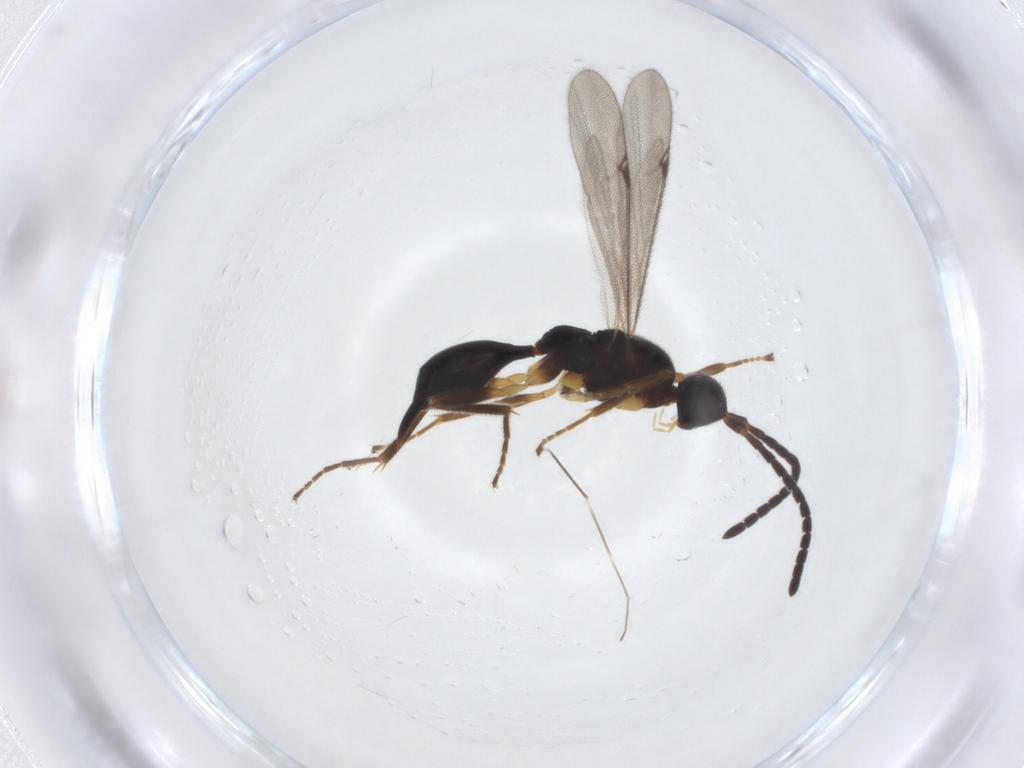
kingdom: Animalia
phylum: Arthropoda
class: Insecta
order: Hymenoptera
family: Proctotrupidae
